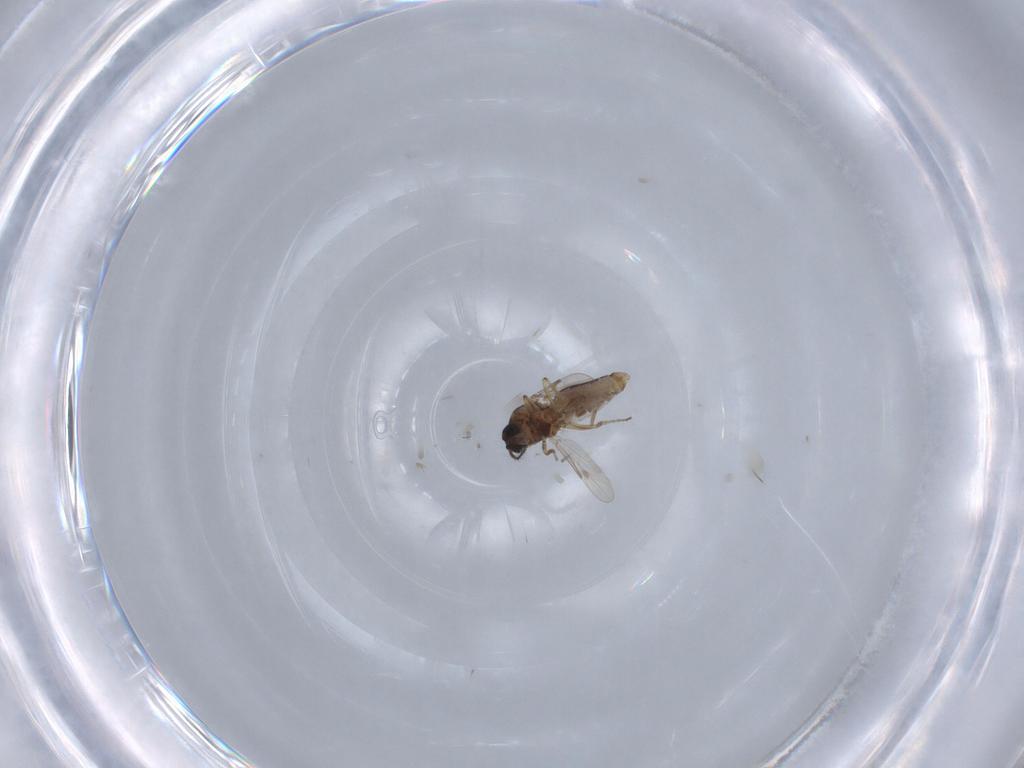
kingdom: Animalia
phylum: Arthropoda
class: Insecta
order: Diptera
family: Ceratopogonidae
